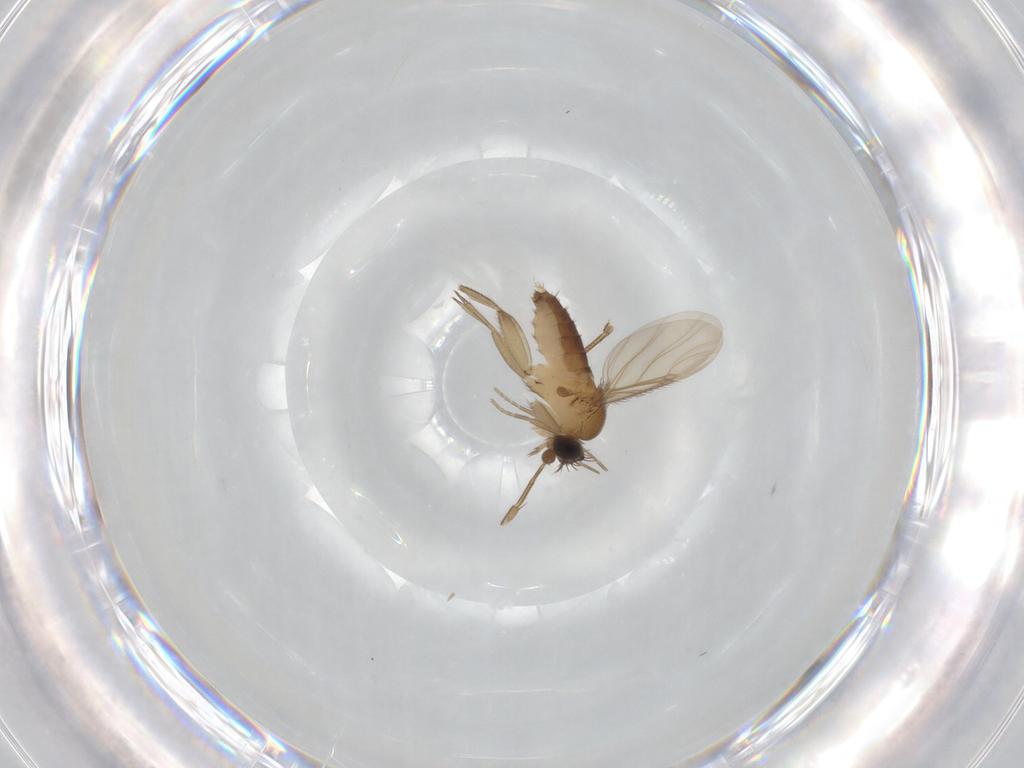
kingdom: Animalia
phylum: Arthropoda
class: Insecta
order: Diptera
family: Phoridae
